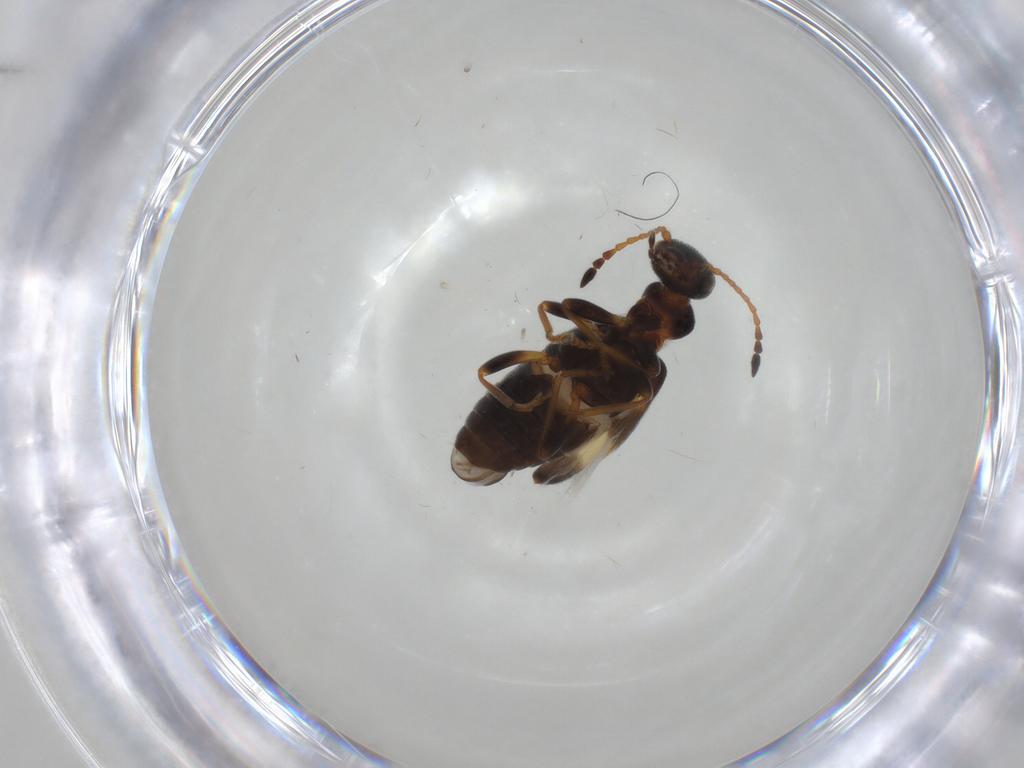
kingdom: Animalia
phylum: Arthropoda
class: Insecta
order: Coleoptera
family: Anthicidae
